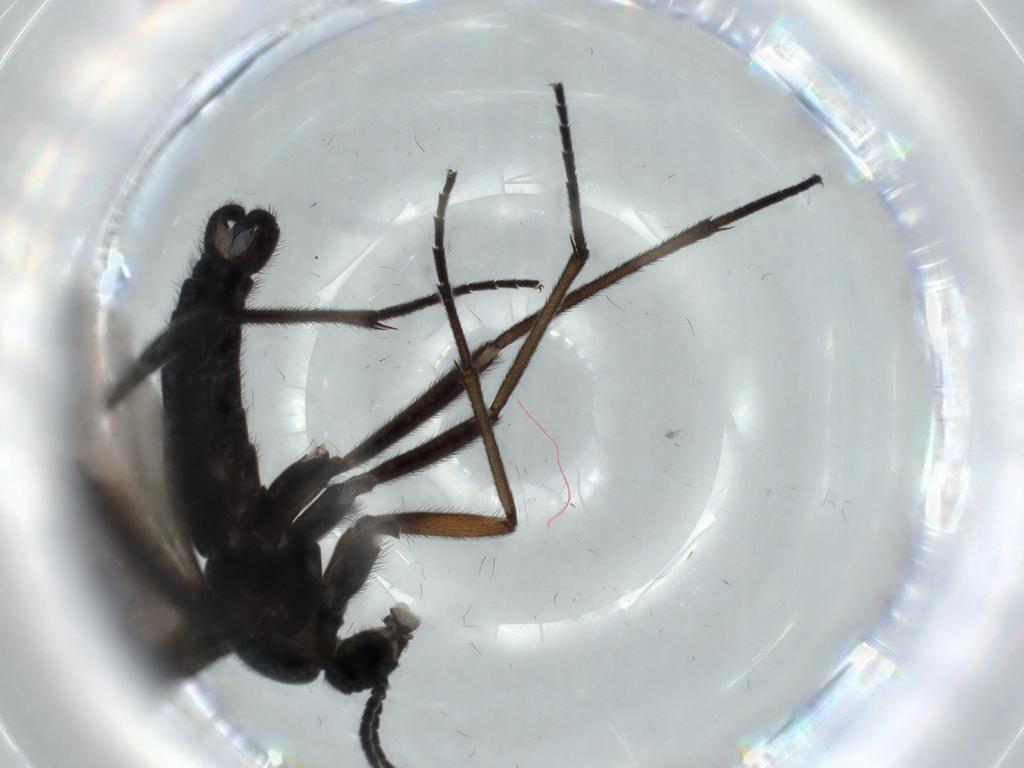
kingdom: Animalia
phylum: Arthropoda
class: Insecta
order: Diptera
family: Sciaridae
